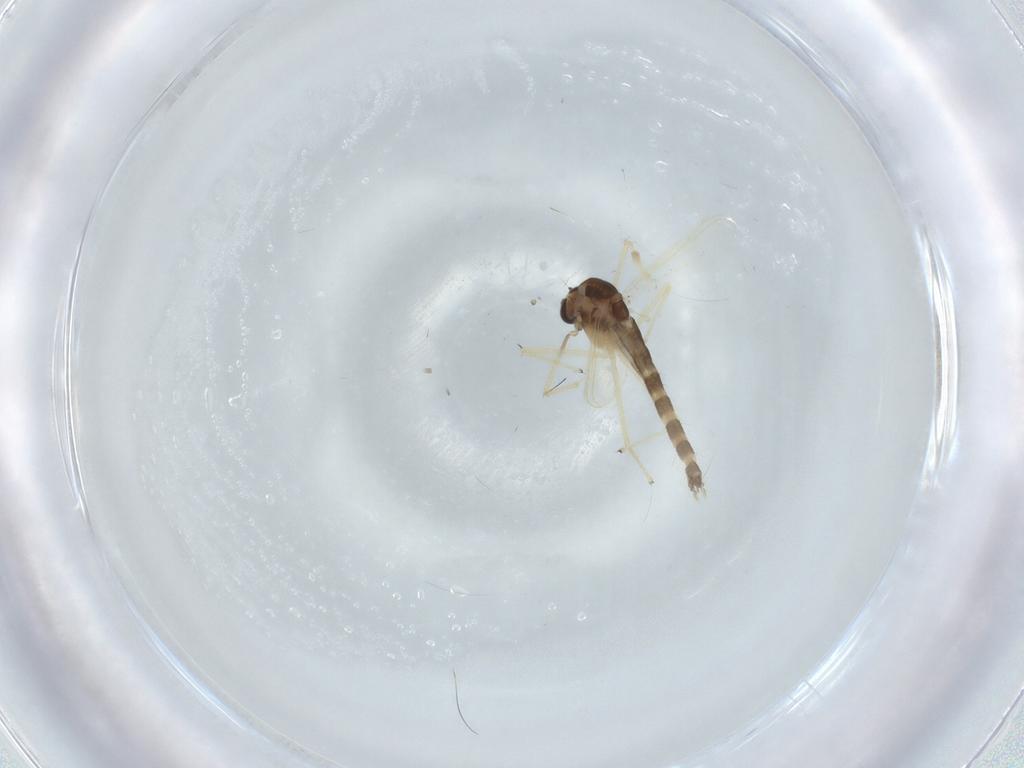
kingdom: Animalia
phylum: Arthropoda
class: Insecta
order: Diptera
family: Chironomidae
